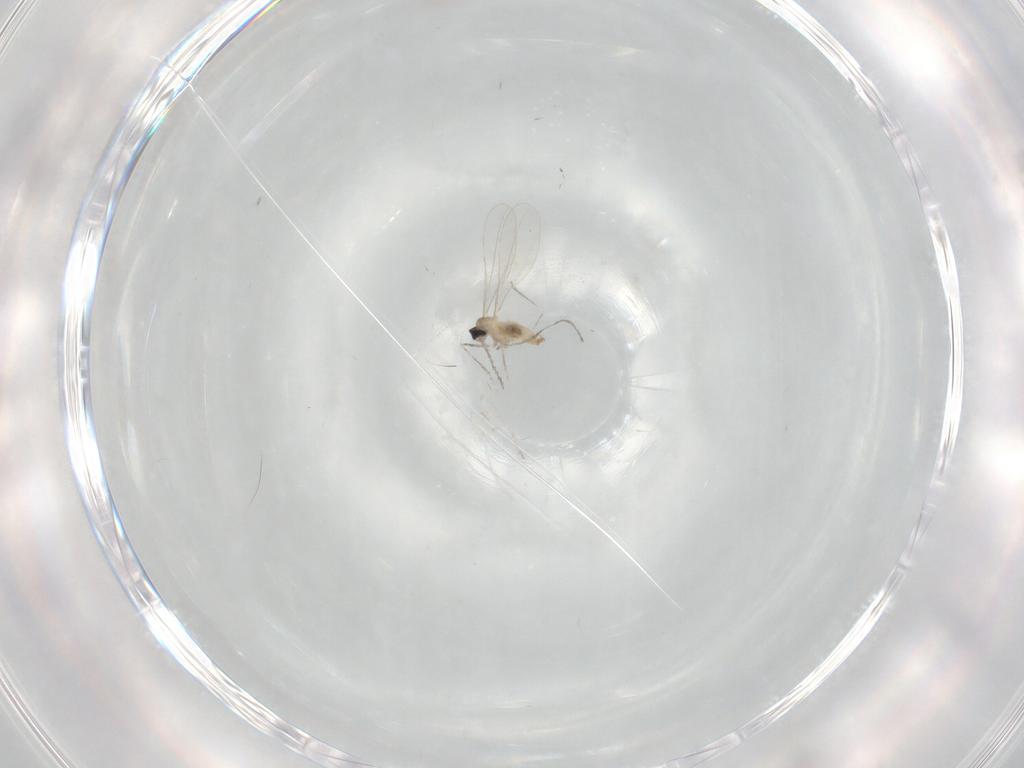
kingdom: Animalia
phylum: Arthropoda
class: Insecta
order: Diptera
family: Cecidomyiidae
